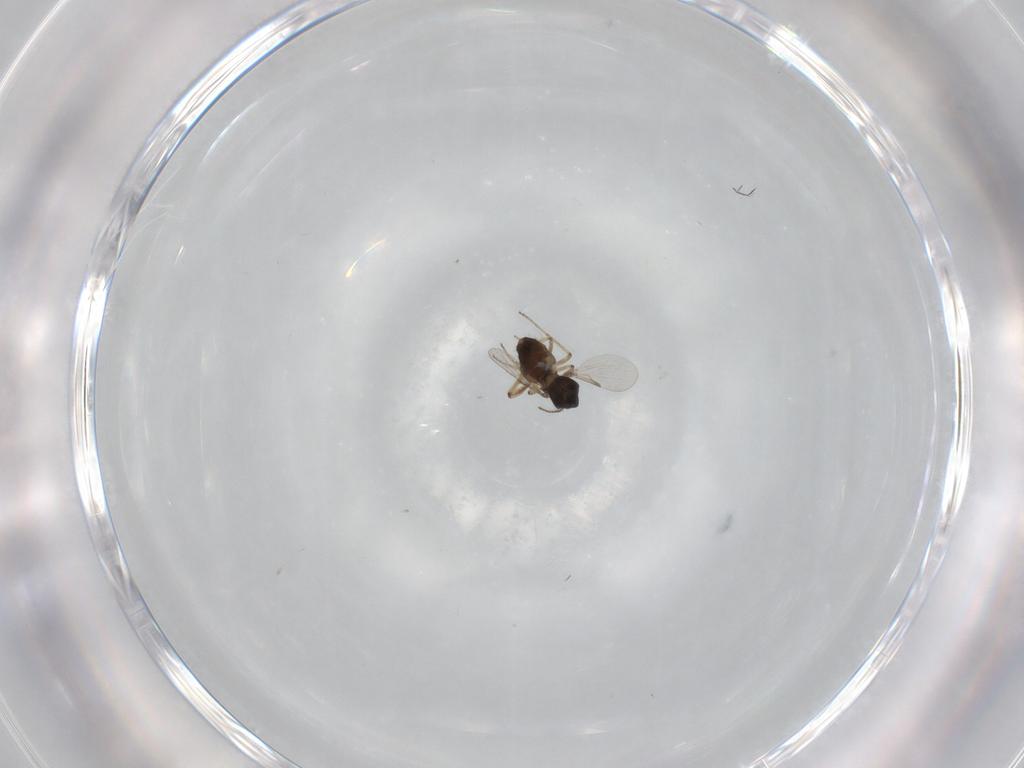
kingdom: Animalia
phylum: Arthropoda
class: Insecta
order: Diptera
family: Ceratopogonidae
